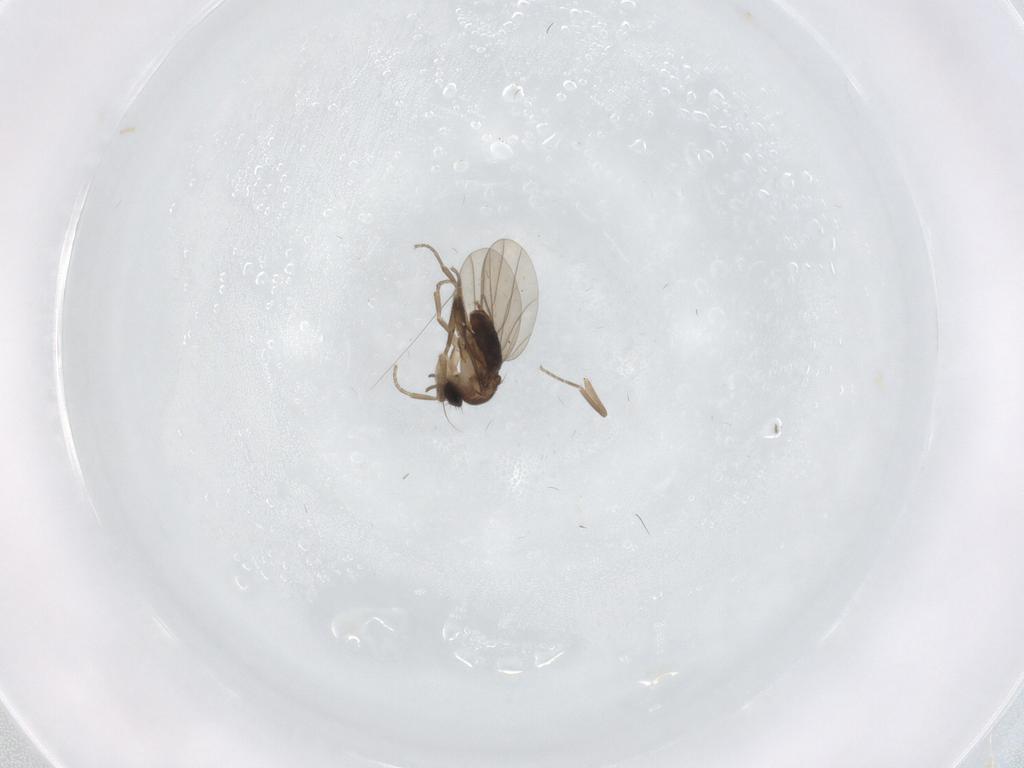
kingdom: Animalia
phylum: Arthropoda
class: Insecta
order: Diptera
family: Phoridae
